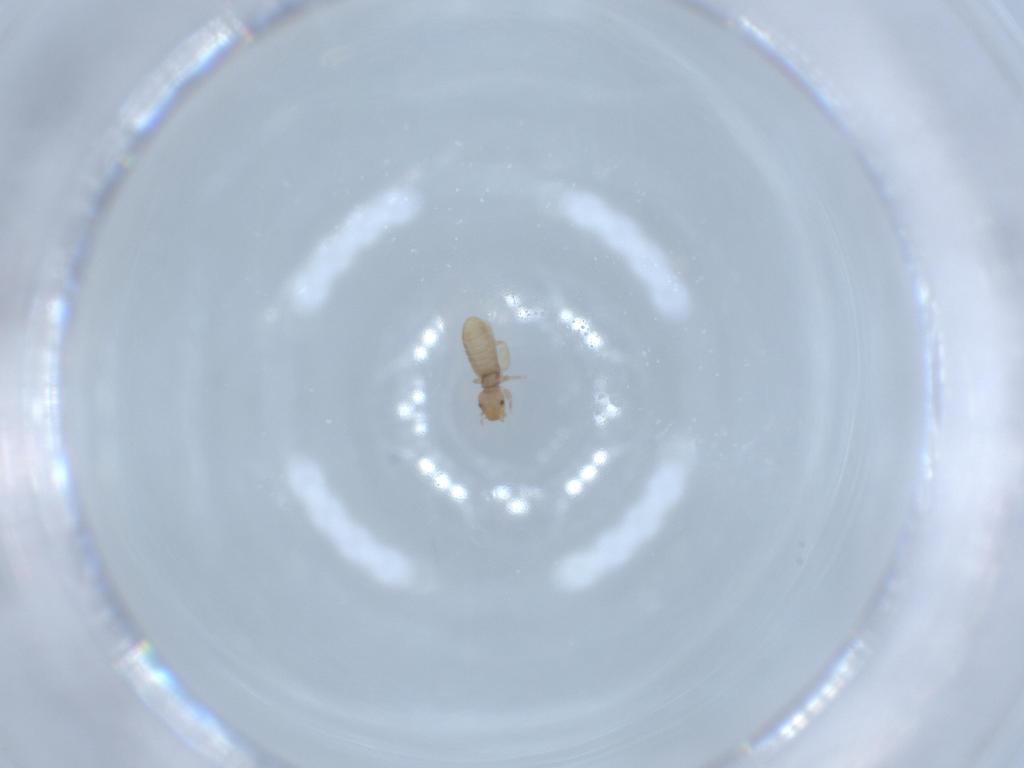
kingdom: Animalia
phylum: Arthropoda
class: Insecta
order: Psocodea
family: Liposcelididae
